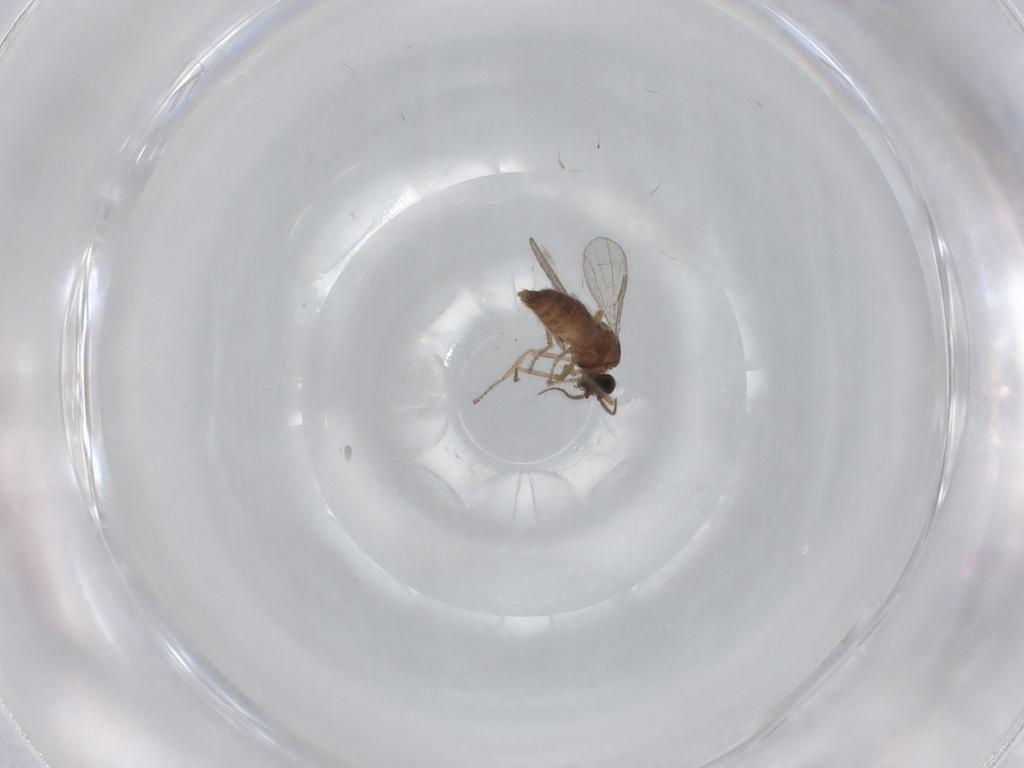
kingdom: Animalia
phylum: Arthropoda
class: Insecta
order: Diptera
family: Ceratopogonidae
